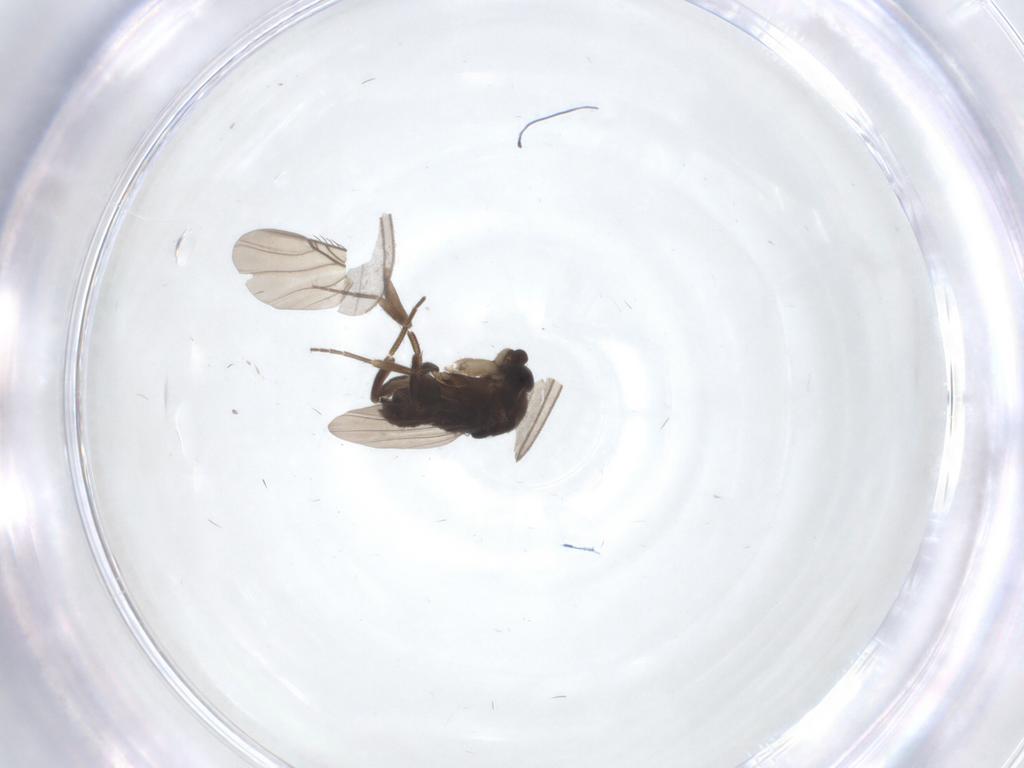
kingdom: Animalia
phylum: Arthropoda
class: Insecta
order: Diptera
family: Phoridae
